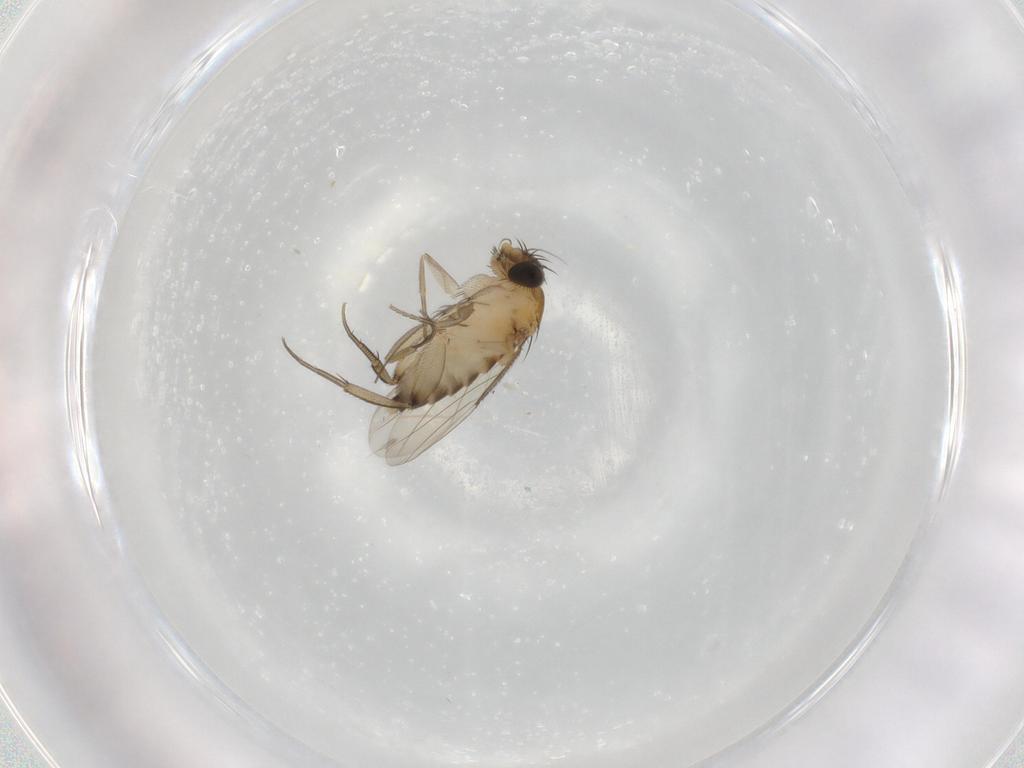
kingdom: Animalia
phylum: Arthropoda
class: Insecta
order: Diptera
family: Phoridae
